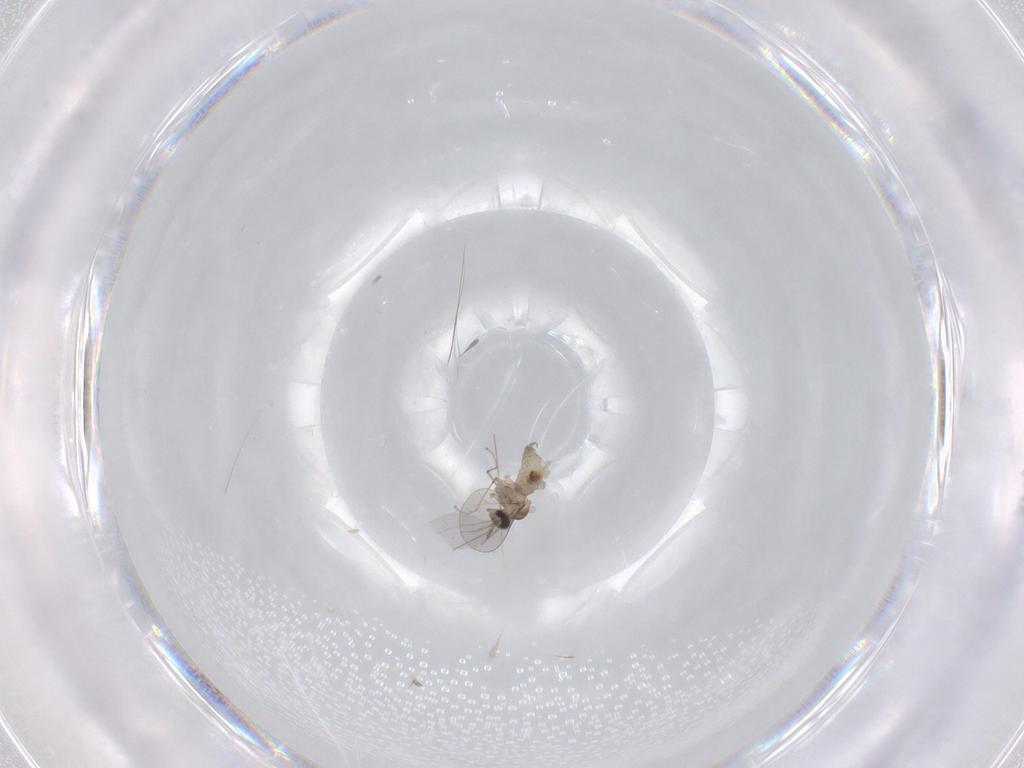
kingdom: Animalia
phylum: Arthropoda
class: Insecta
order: Diptera
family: Cecidomyiidae
